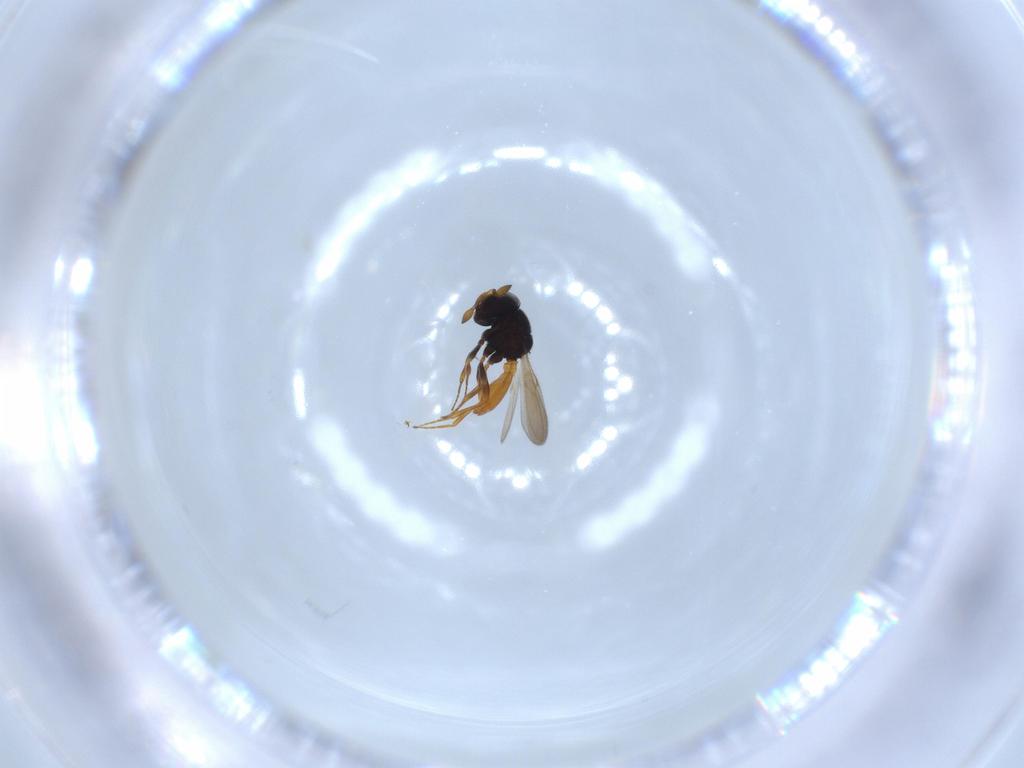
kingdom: Animalia
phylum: Arthropoda
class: Insecta
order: Hymenoptera
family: Scelionidae
